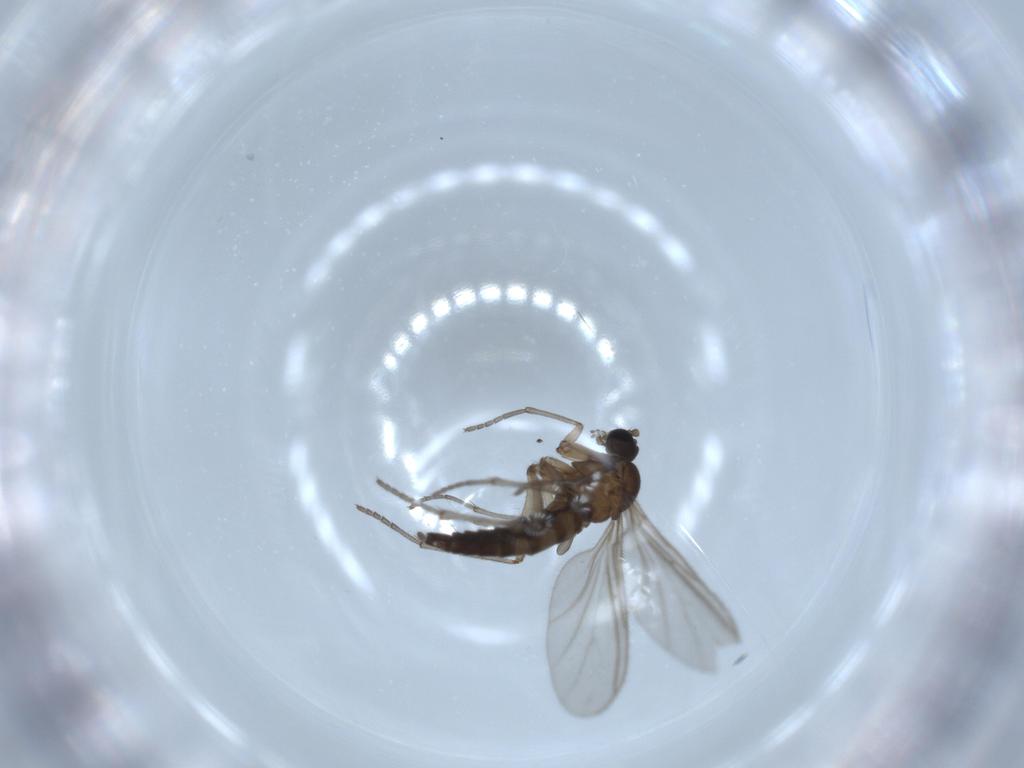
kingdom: Animalia
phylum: Arthropoda
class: Insecta
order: Diptera
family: Sciaridae
